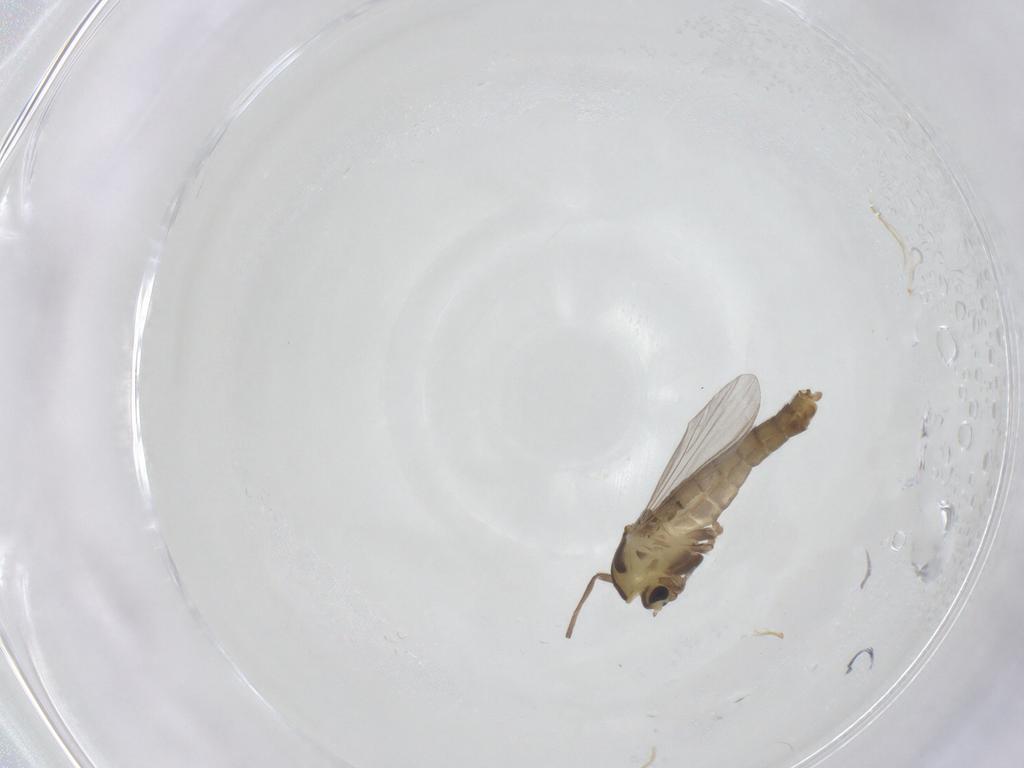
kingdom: Animalia
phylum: Arthropoda
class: Insecta
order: Diptera
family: Chironomidae
